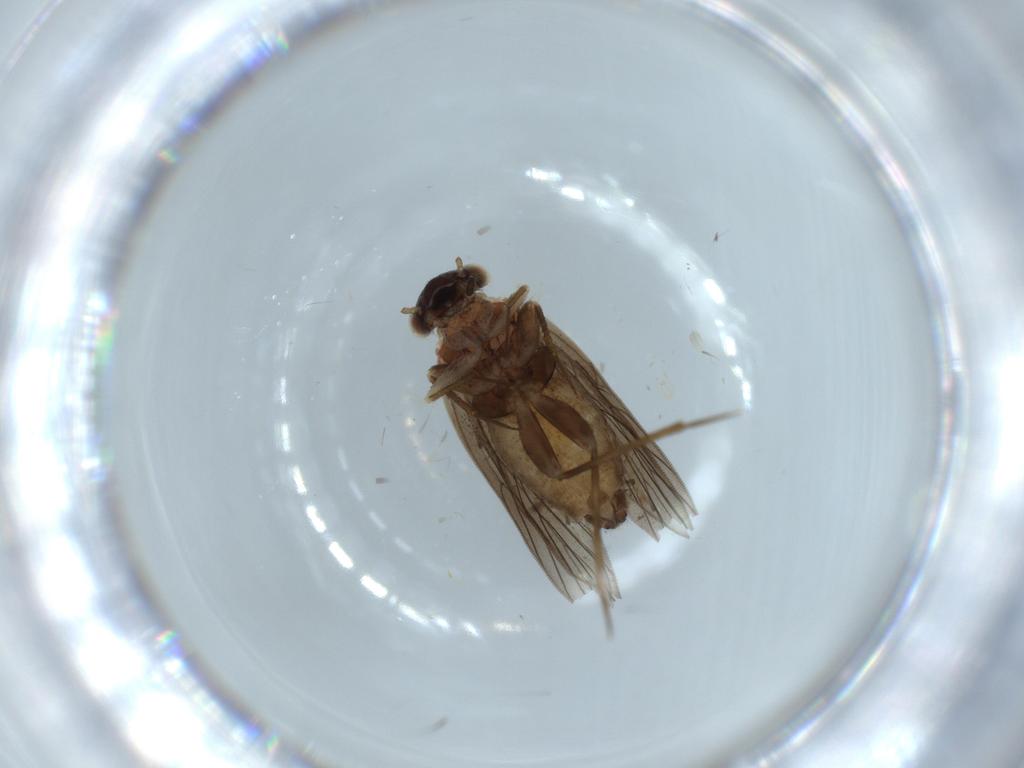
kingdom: Animalia
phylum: Arthropoda
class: Insecta
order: Psocodea
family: Lepidopsocidae
